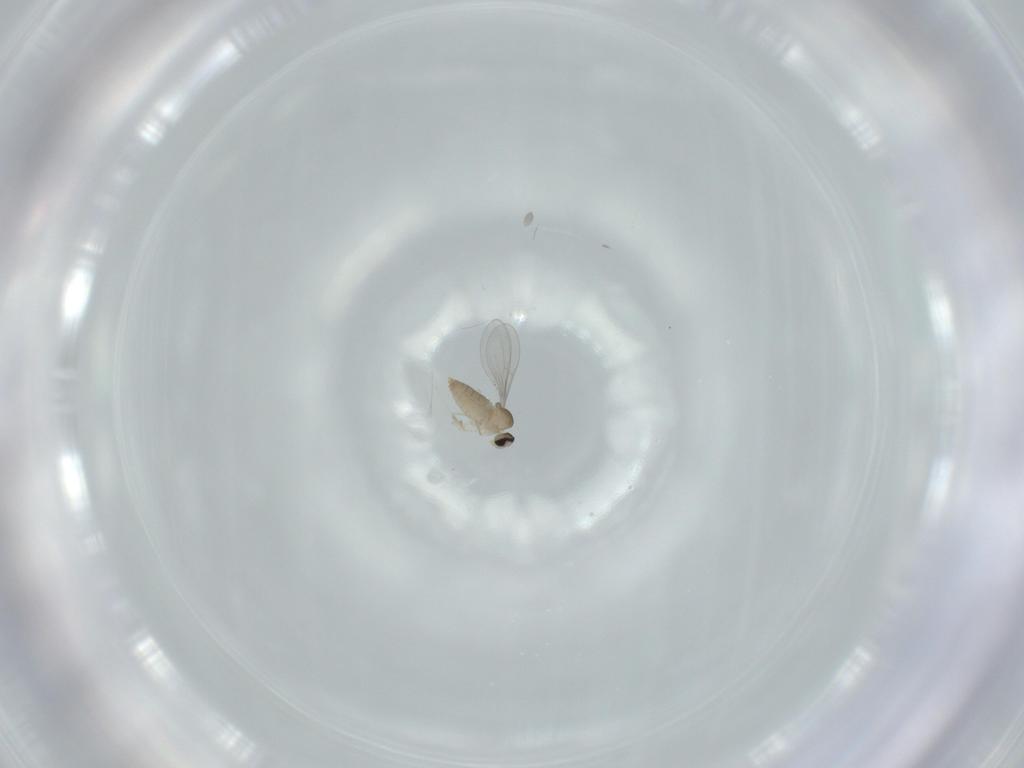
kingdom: Animalia
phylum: Arthropoda
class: Insecta
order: Diptera
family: Cecidomyiidae
